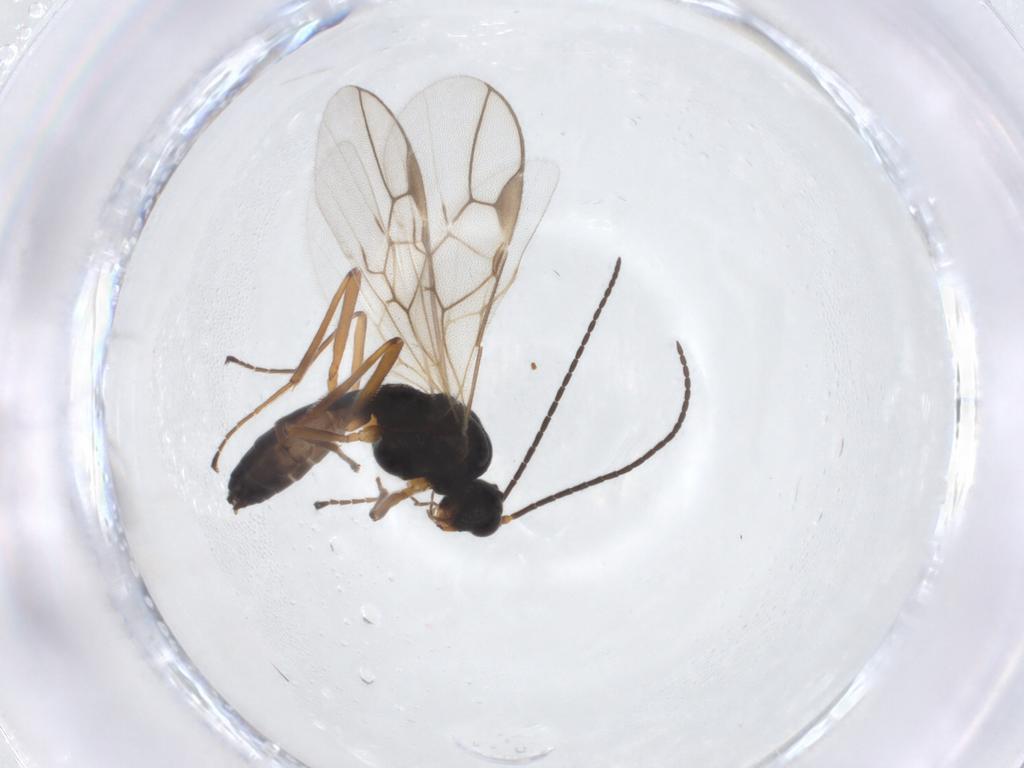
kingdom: Animalia
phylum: Arthropoda
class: Insecta
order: Hymenoptera
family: Braconidae
